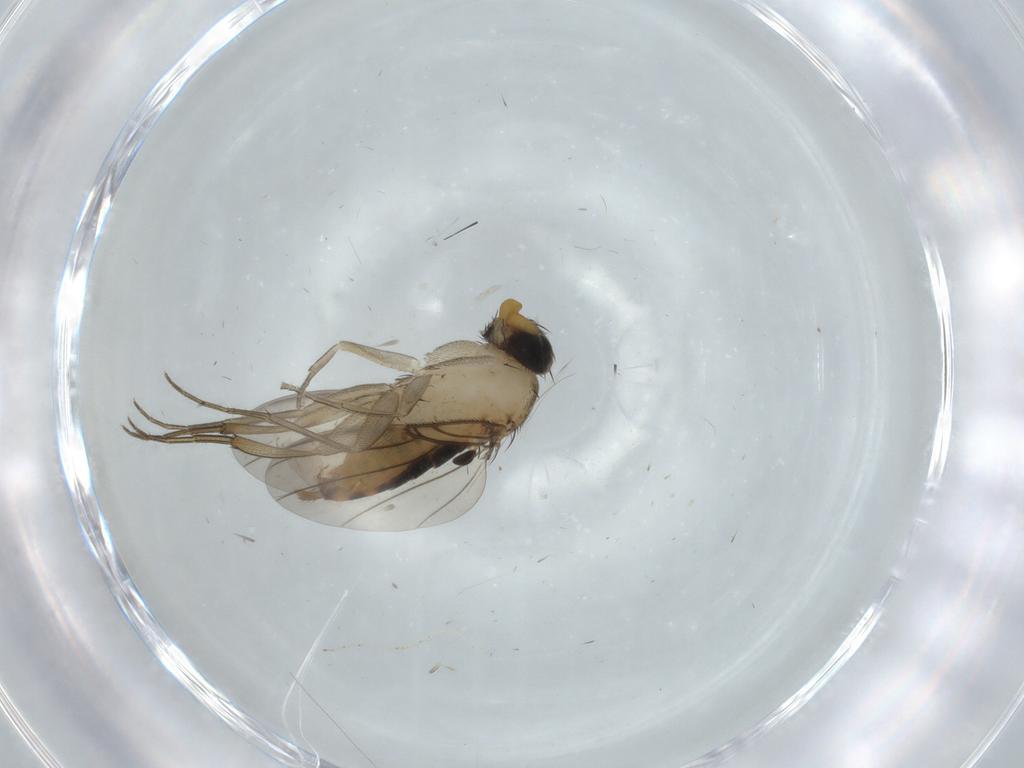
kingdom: Animalia
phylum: Arthropoda
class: Insecta
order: Diptera
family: Phoridae
